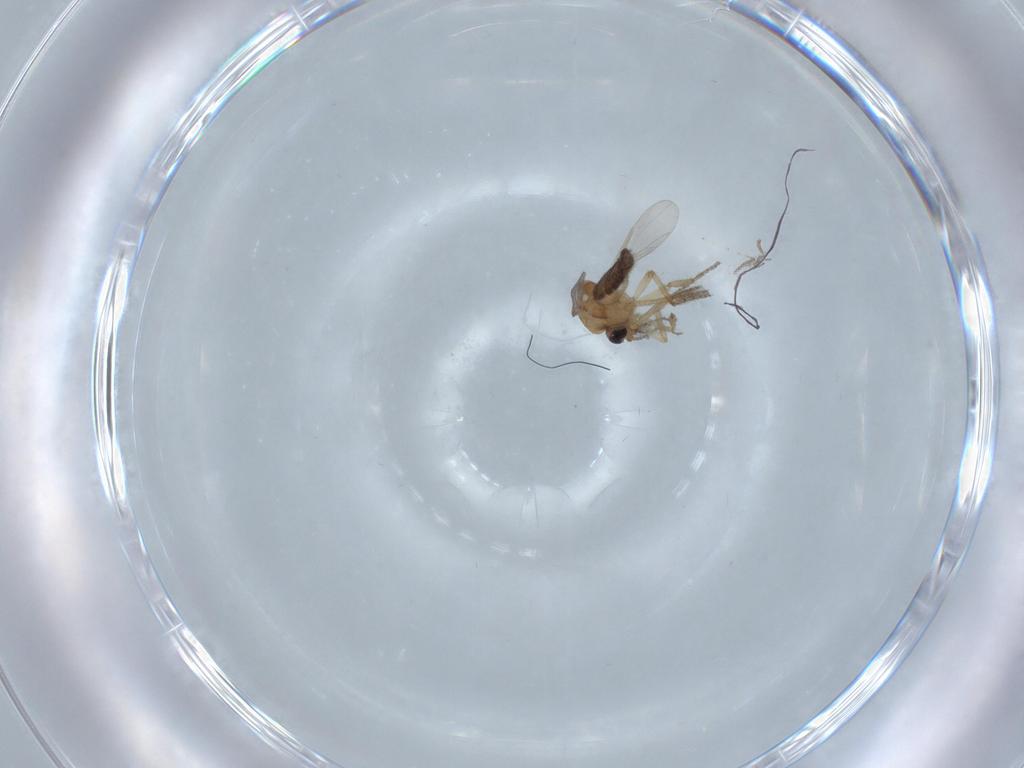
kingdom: Animalia
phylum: Arthropoda
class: Insecta
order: Diptera
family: Ceratopogonidae
